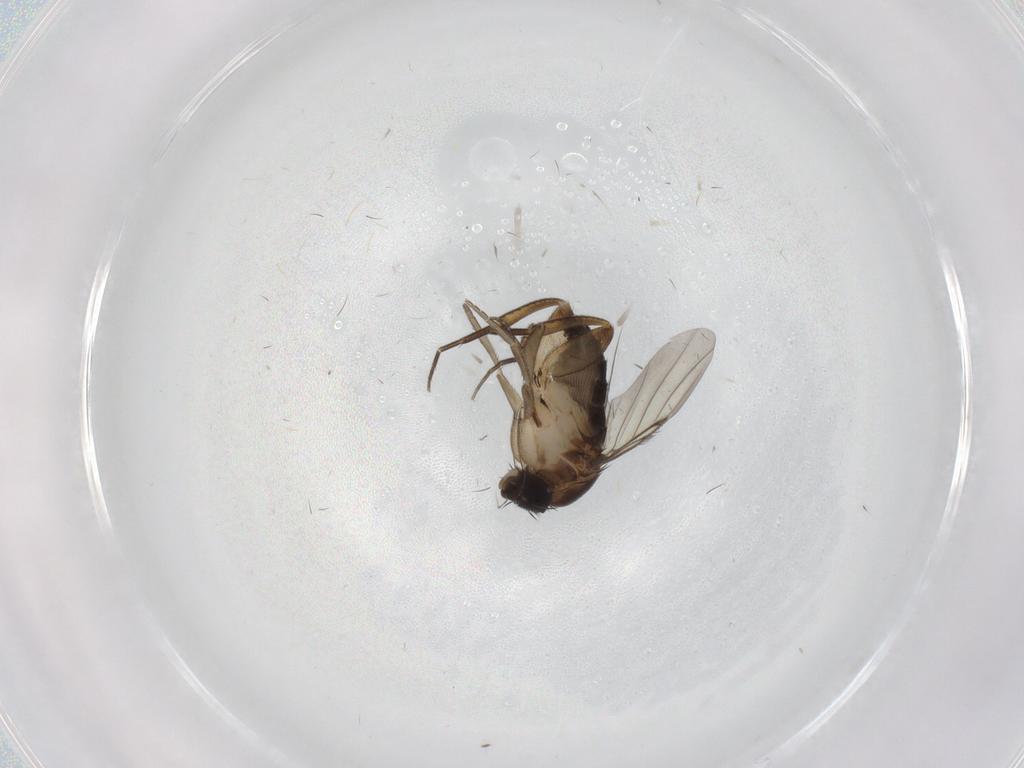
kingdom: Animalia
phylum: Arthropoda
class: Insecta
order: Diptera
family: Phoridae
